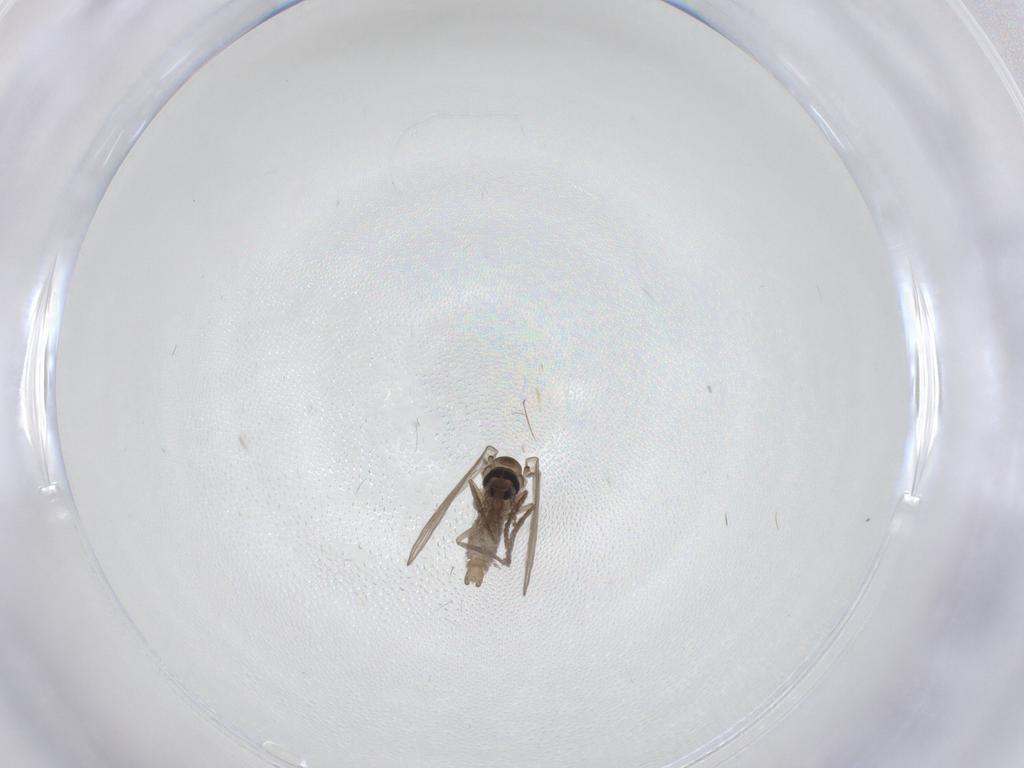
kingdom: Animalia
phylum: Arthropoda
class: Insecta
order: Diptera
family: Psychodidae
